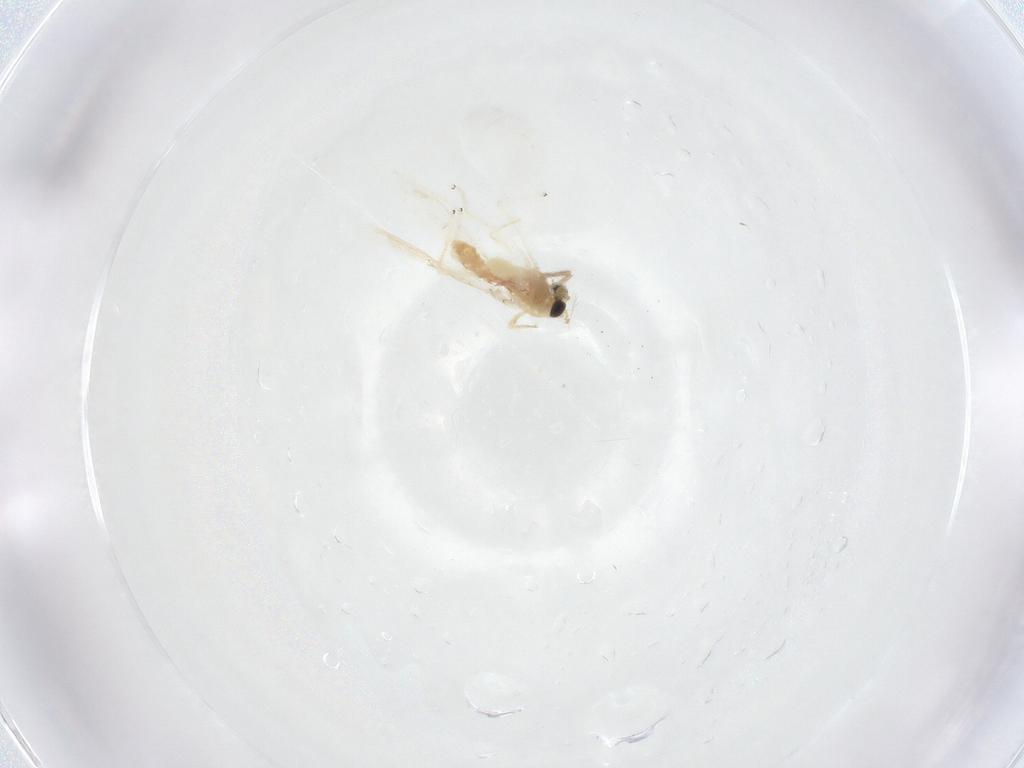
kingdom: Animalia
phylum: Arthropoda
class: Insecta
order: Diptera
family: Chironomidae
